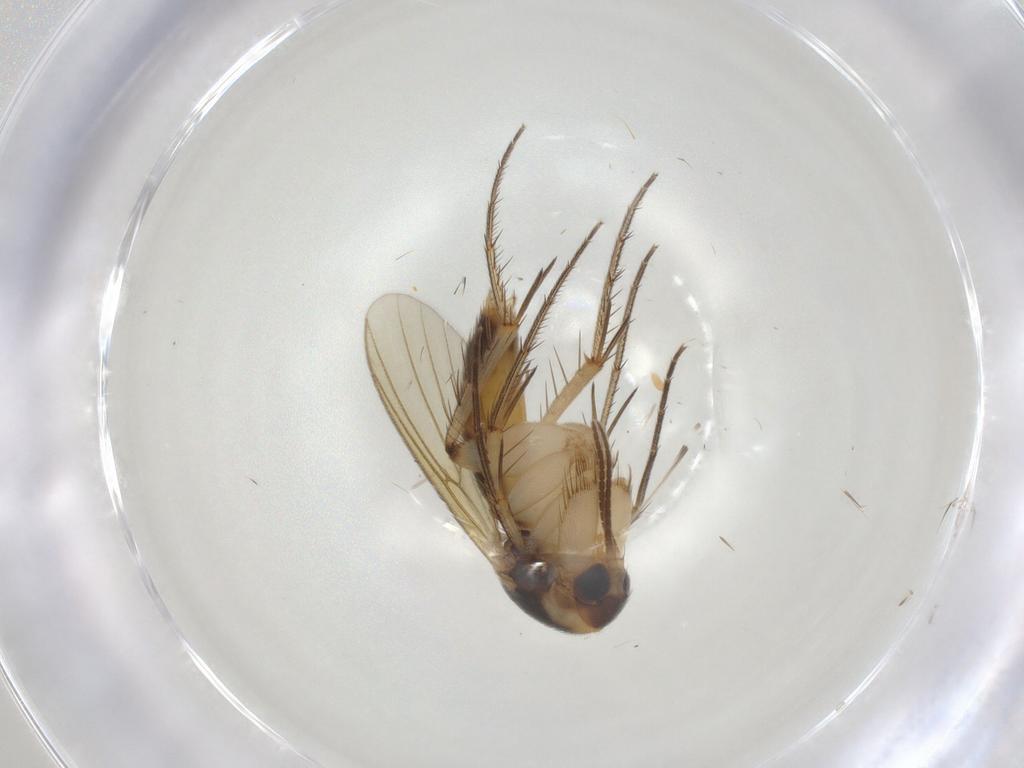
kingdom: Animalia
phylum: Arthropoda
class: Insecta
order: Diptera
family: Mycetophilidae
